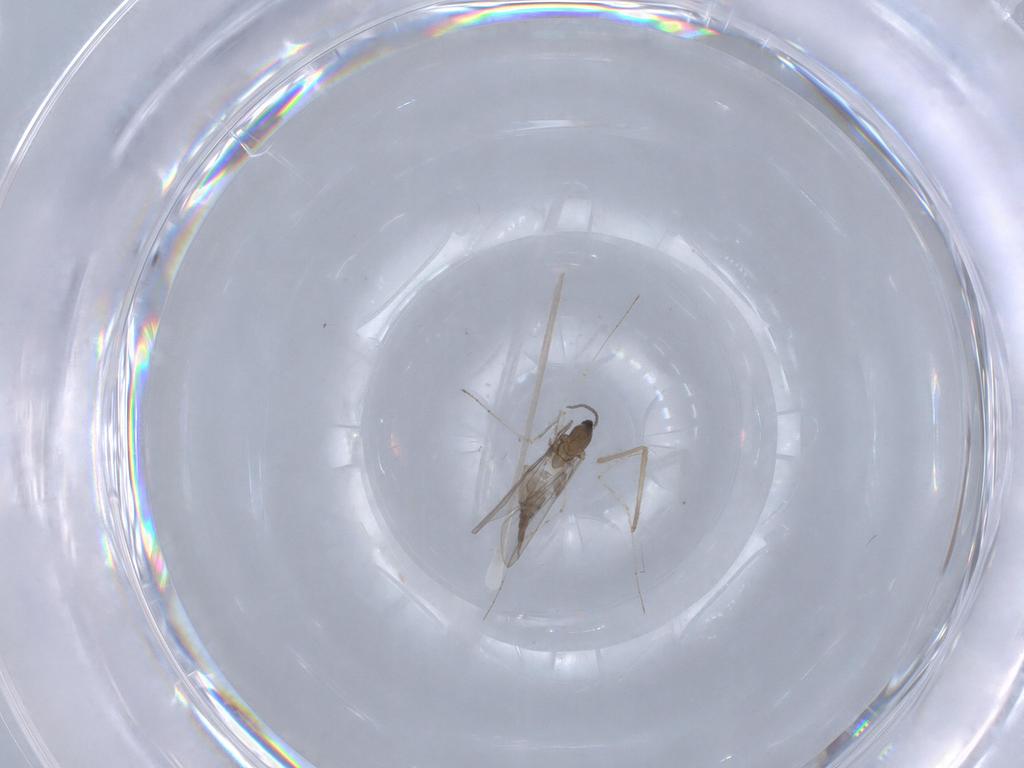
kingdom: Animalia
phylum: Arthropoda
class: Insecta
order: Diptera
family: Cecidomyiidae
